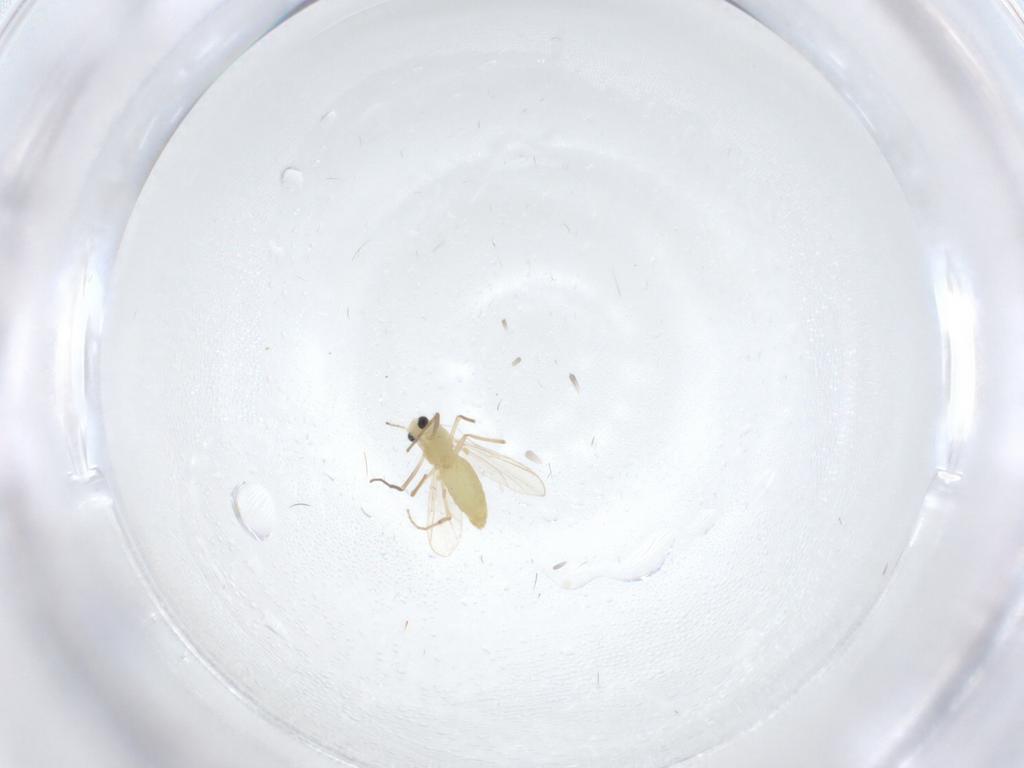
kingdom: Animalia
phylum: Arthropoda
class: Insecta
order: Diptera
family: Chironomidae
